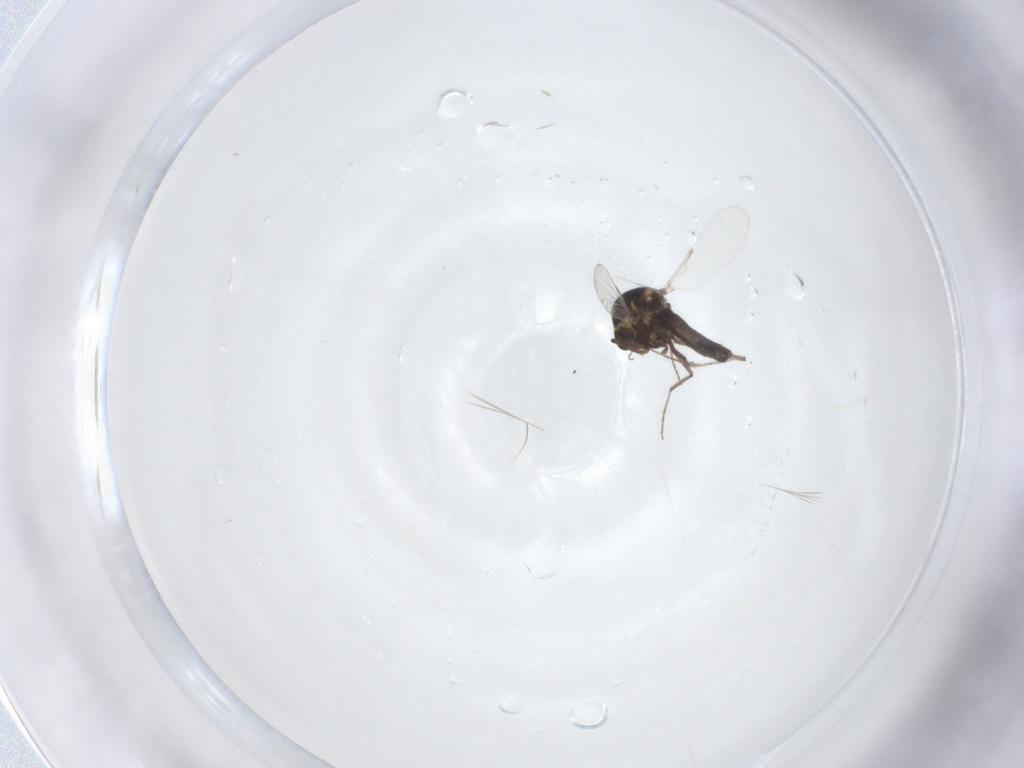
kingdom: Animalia
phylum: Arthropoda
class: Insecta
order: Diptera
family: Ceratopogonidae
